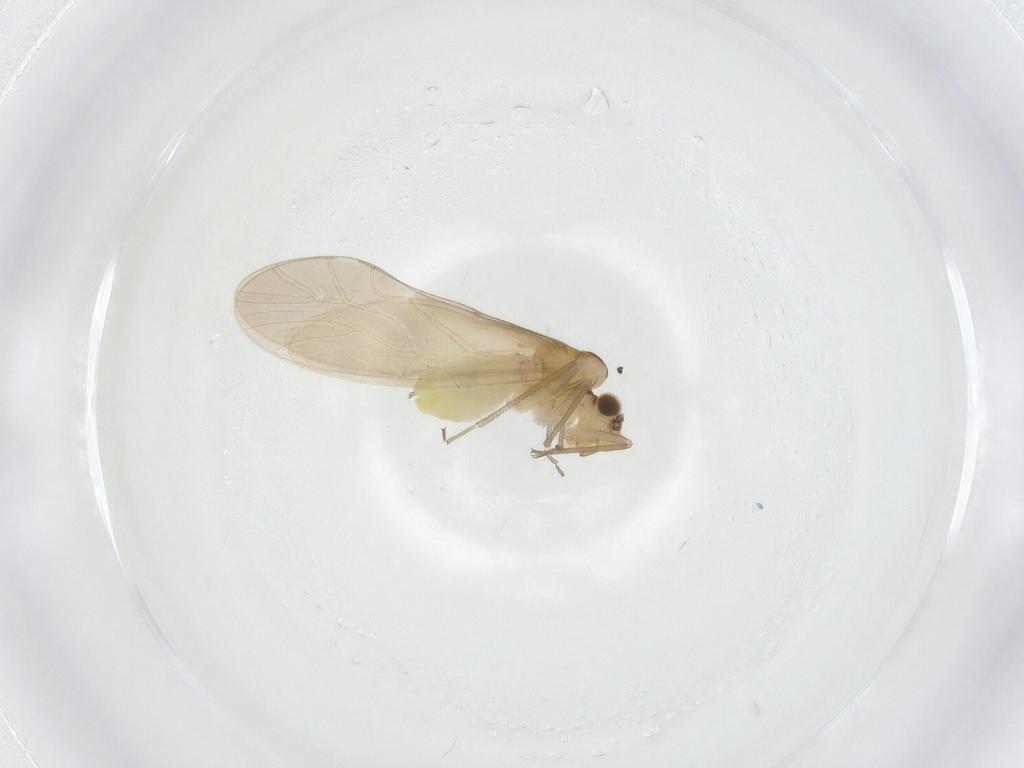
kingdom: Animalia
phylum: Arthropoda
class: Insecta
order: Psocodea
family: Caeciliusidae
